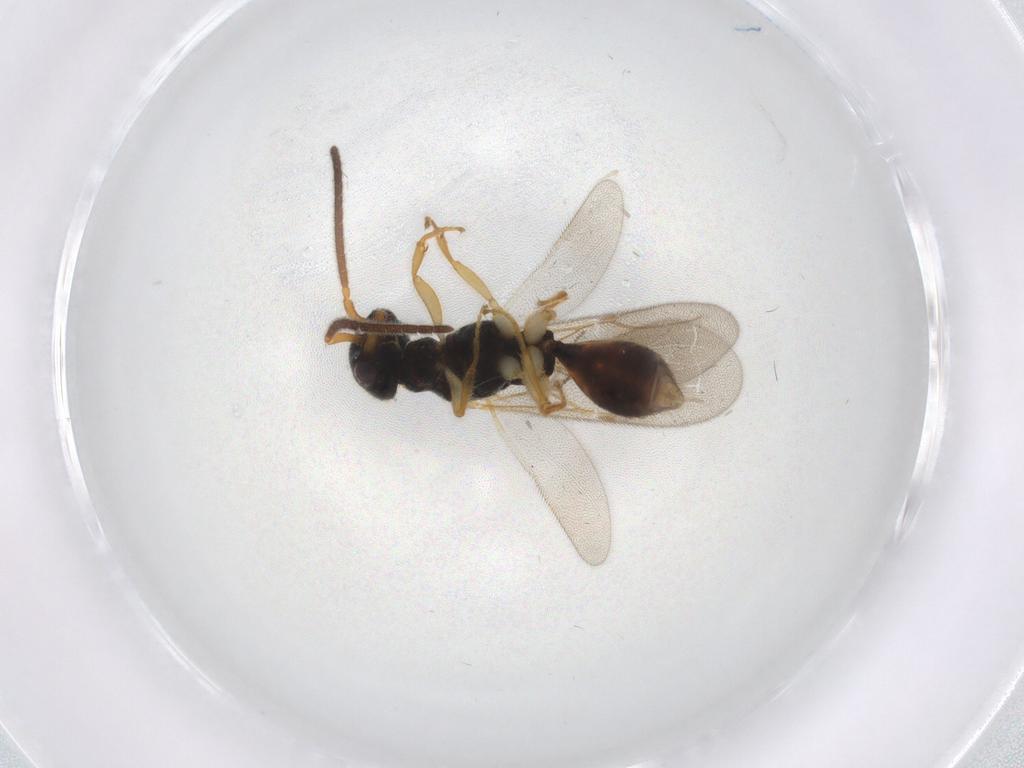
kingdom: Animalia
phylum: Arthropoda
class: Insecta
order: Hymenoptera
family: Bethylidae
